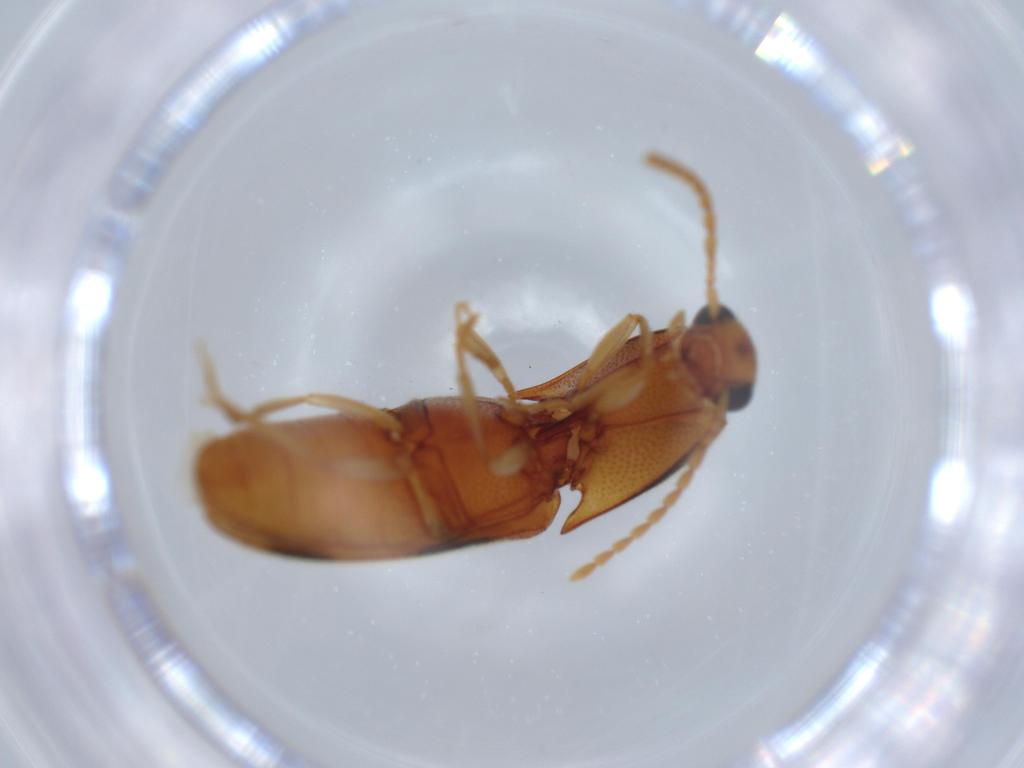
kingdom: Animalia
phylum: Arthropoda
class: Insecta
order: Coleoptera
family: Elateridae
